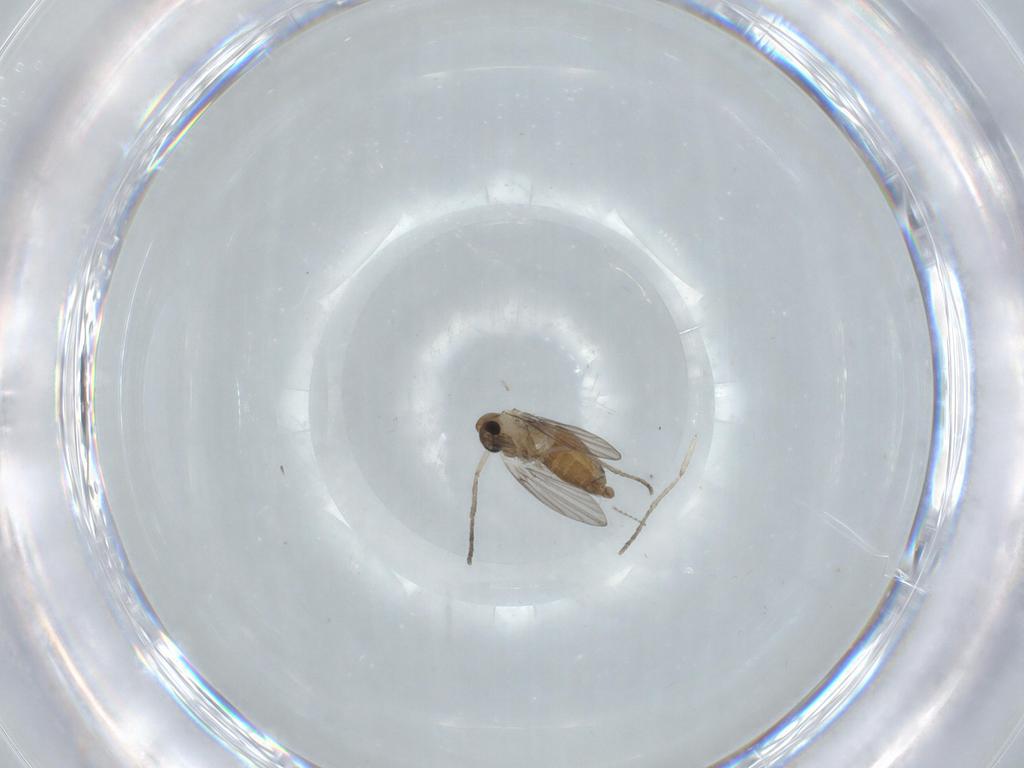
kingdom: Animalia
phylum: Arthropoda
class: Insecta
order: Diptera
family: Psychodidae
